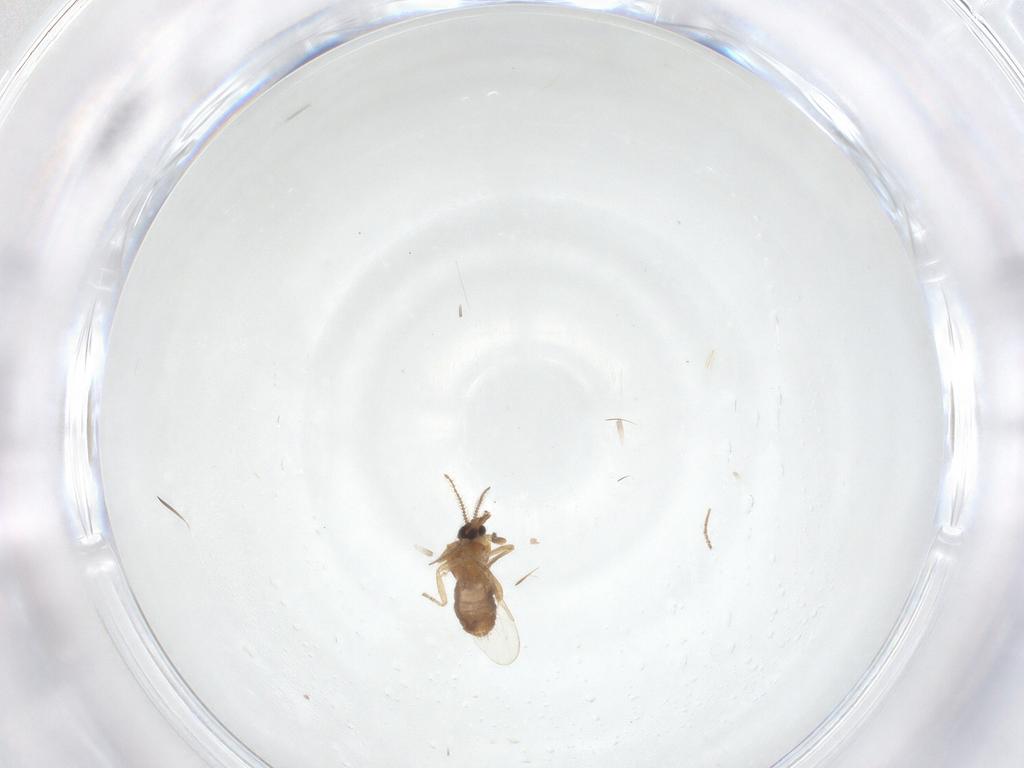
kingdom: Animalia
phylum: Arthropoda
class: Insecta
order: Diptera
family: Ceratopogonidae
